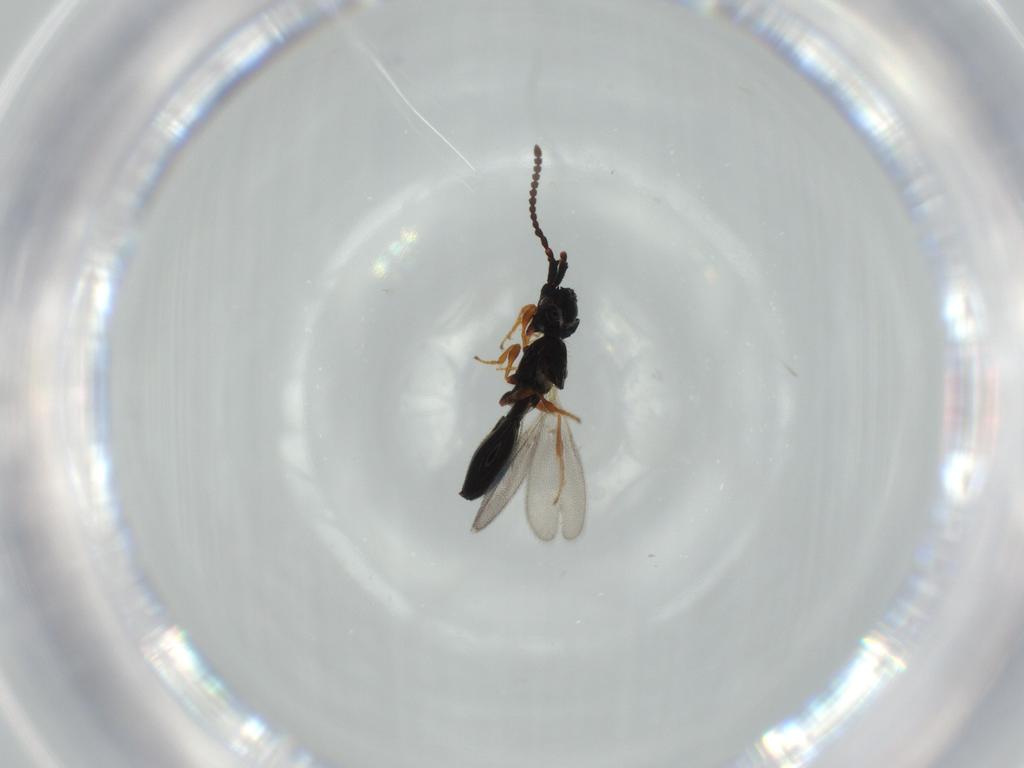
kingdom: Animalia
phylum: Arthropoda
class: Insecta
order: Hymenoptera
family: Diapriidae
